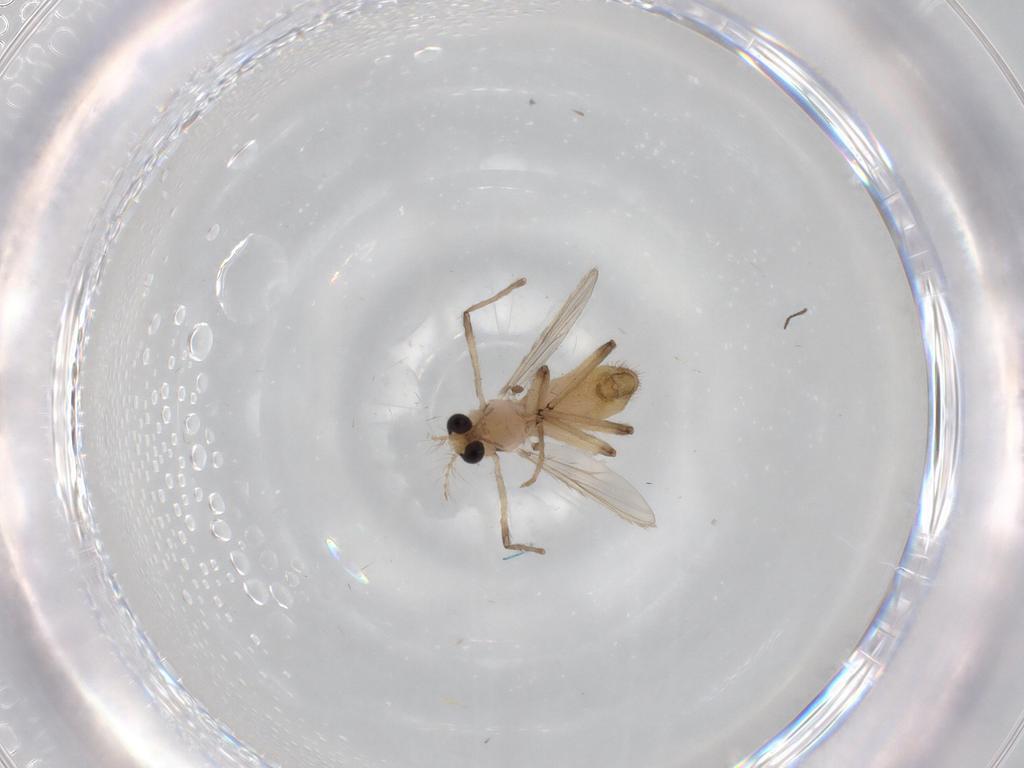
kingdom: Animalia
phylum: Arthropoda
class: Insecta
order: Diptera
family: Chironomidae
